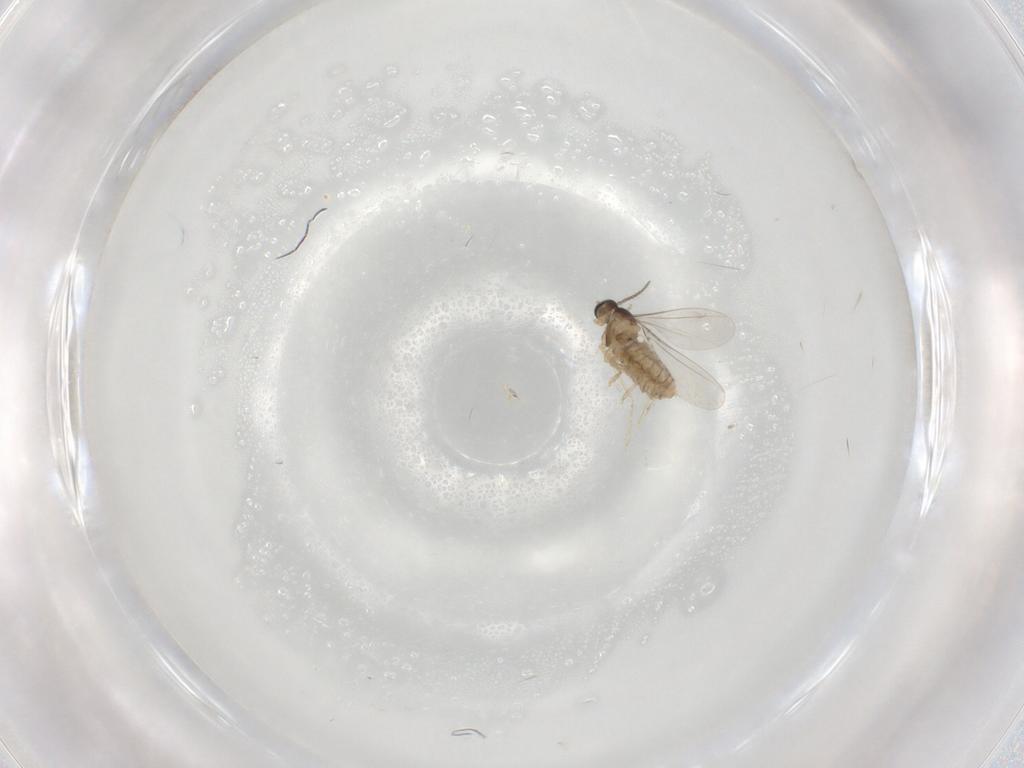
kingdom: Animalia
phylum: Arthropoda
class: Insecta
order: Diptera
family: Cecidomyiidae
